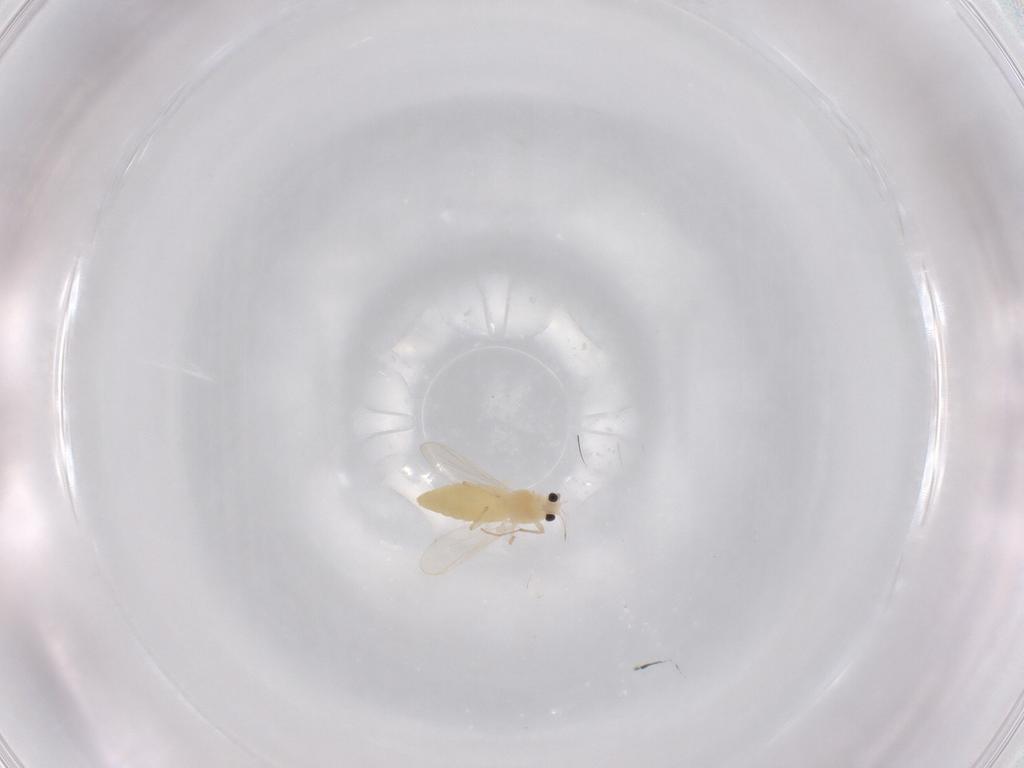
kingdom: Animalia
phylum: Arthropoda
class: Insecta
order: Diptera
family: Chironomidae
